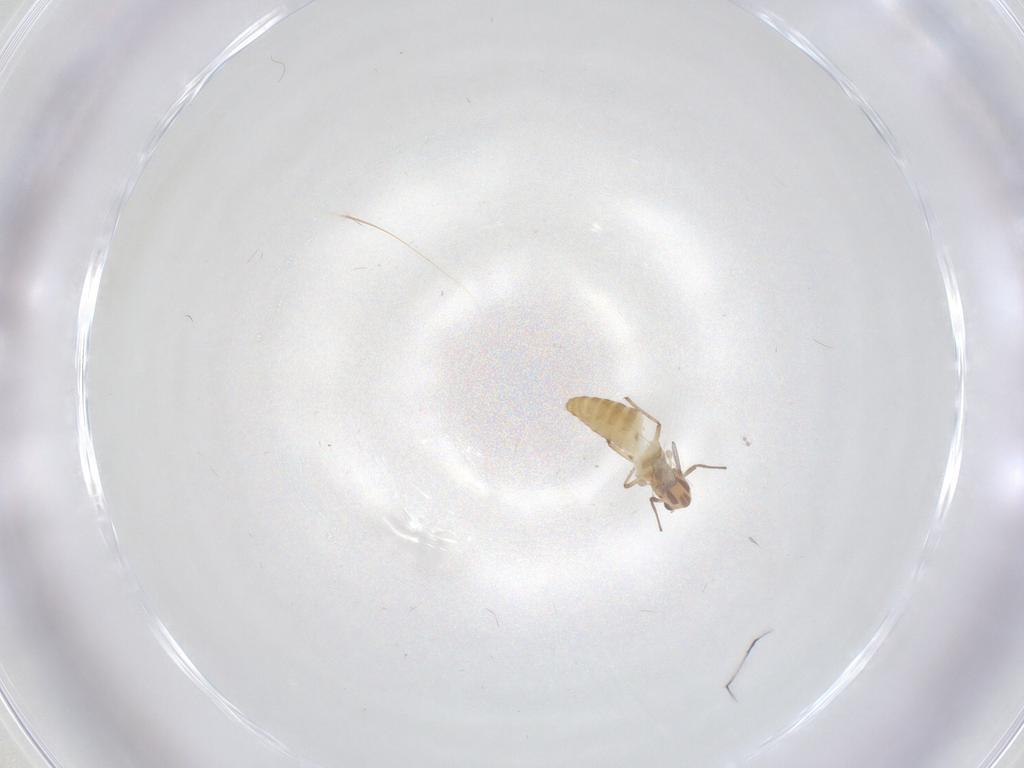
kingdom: Animalia
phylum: Arthropoda
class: Insecta
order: Diptera
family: Chironomidae
